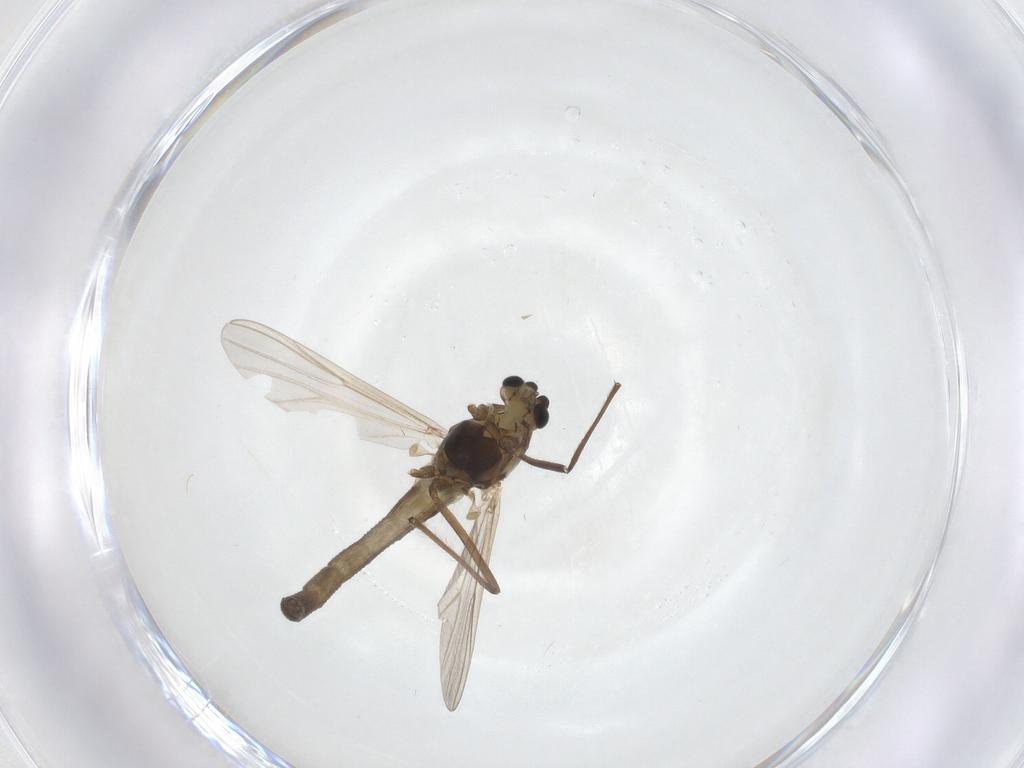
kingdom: Animalia
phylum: Arthropoda
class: Insecta
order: Diptera
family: Chironomidae
